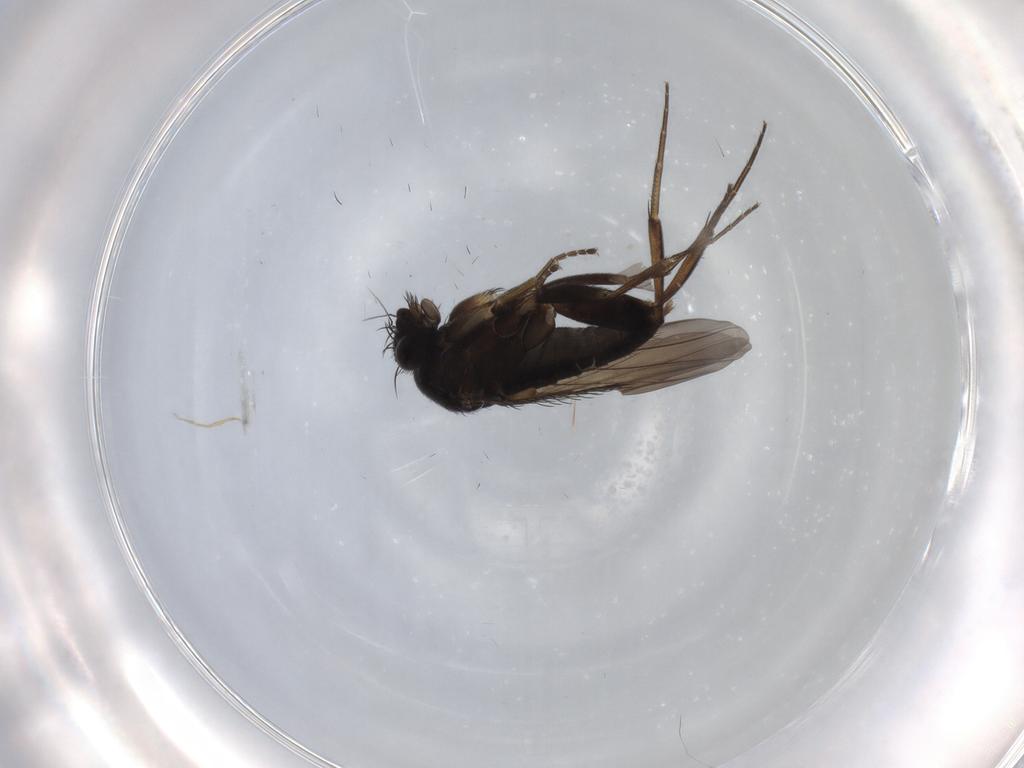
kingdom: Animalia
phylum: Arthropoda
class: Insecta
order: Diptera
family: Phoridae
